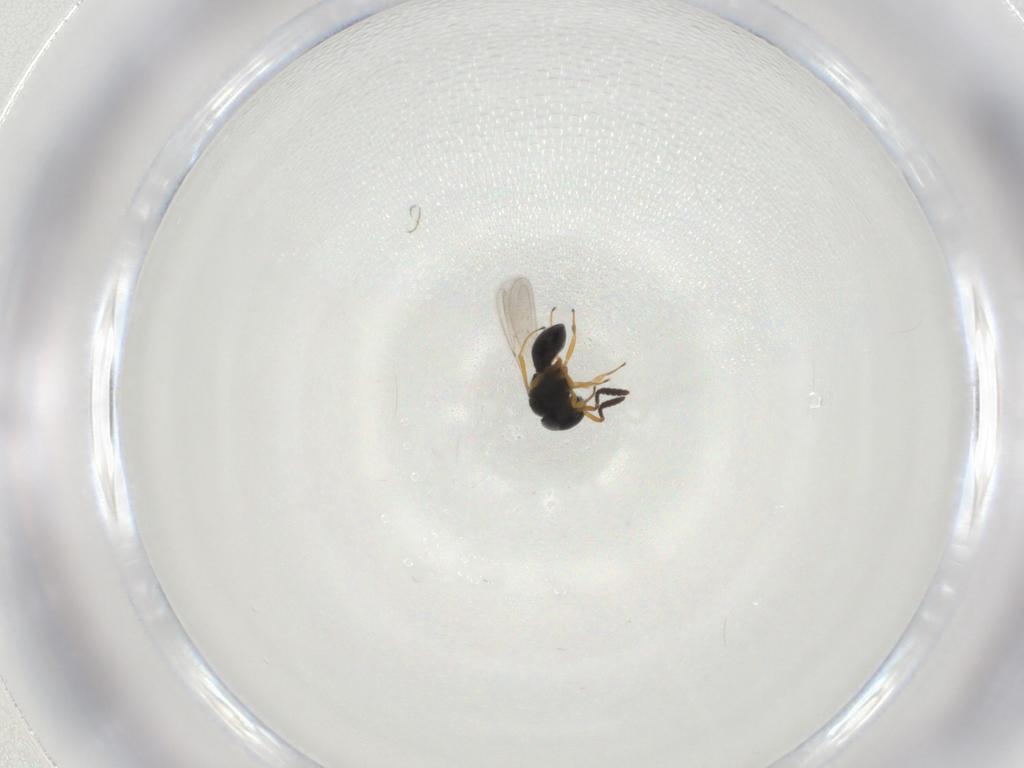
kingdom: Animalia
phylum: Arthropoda
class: Insecta
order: Hymenoptera
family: Scelionidae
